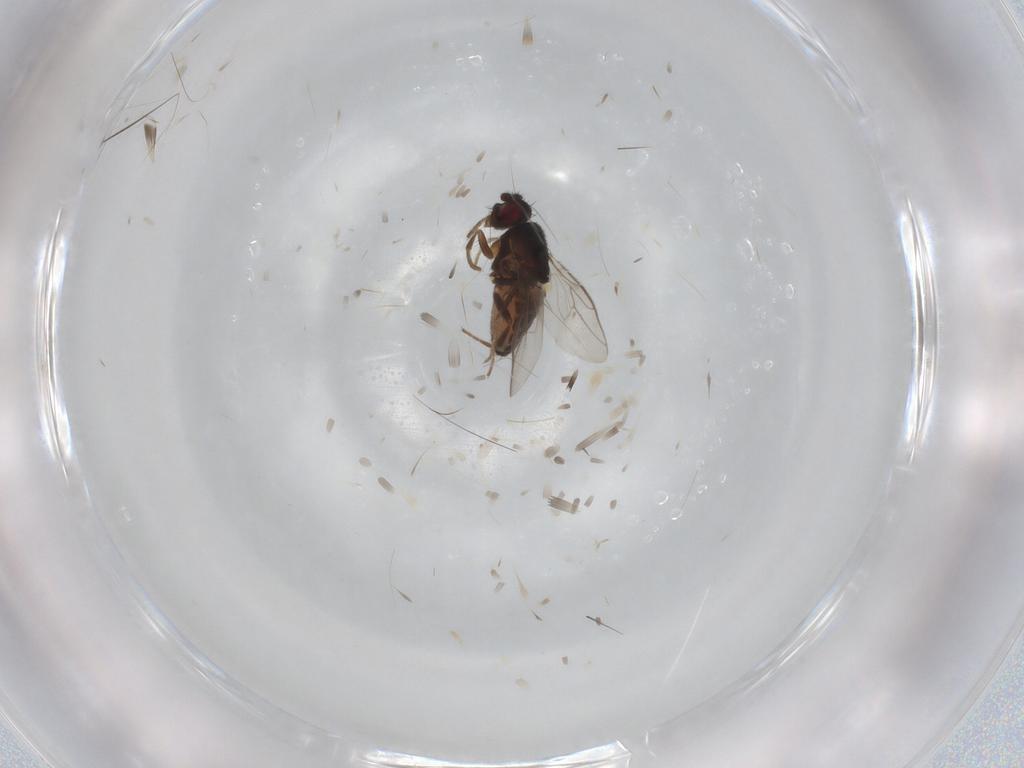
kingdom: Animalia
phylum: Arthropoda
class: Insecta
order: Diptera
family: Sphaeroceridae
